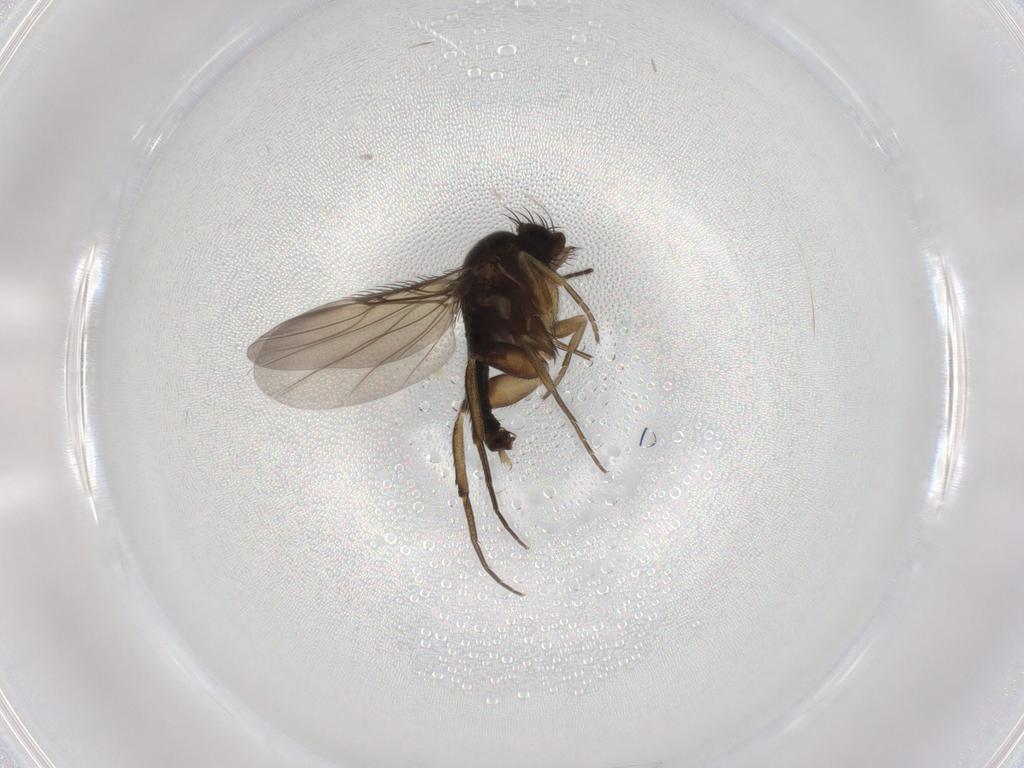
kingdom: Animalia
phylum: Arthropoda
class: Insecta
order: Diptera
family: Phoridae
